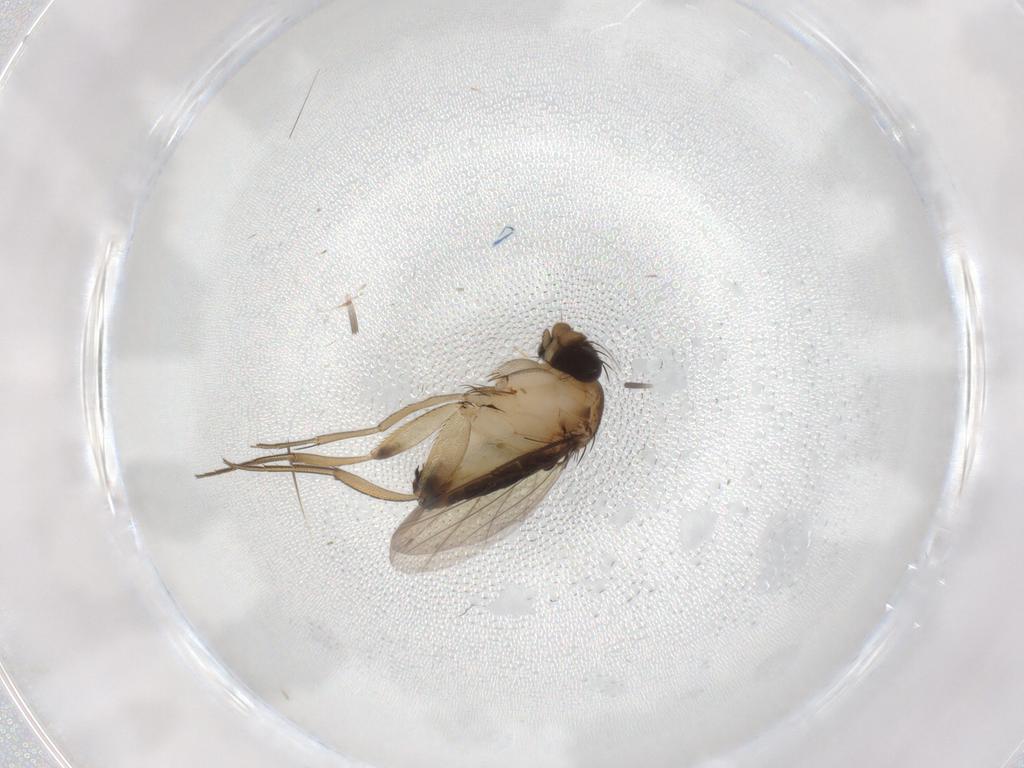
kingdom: Animalia
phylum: Arthropoda
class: Insecta
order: Diptera
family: Phoridae
